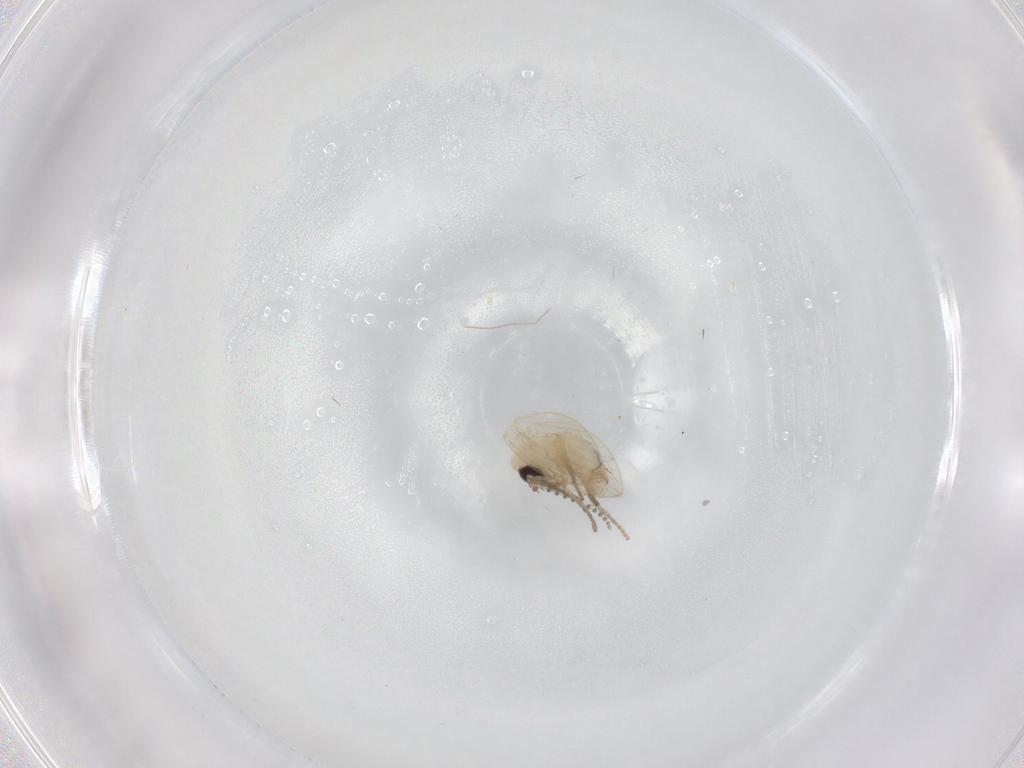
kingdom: Animalia
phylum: Arthropoda
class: Insecta
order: Diptera
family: Psychodidae
